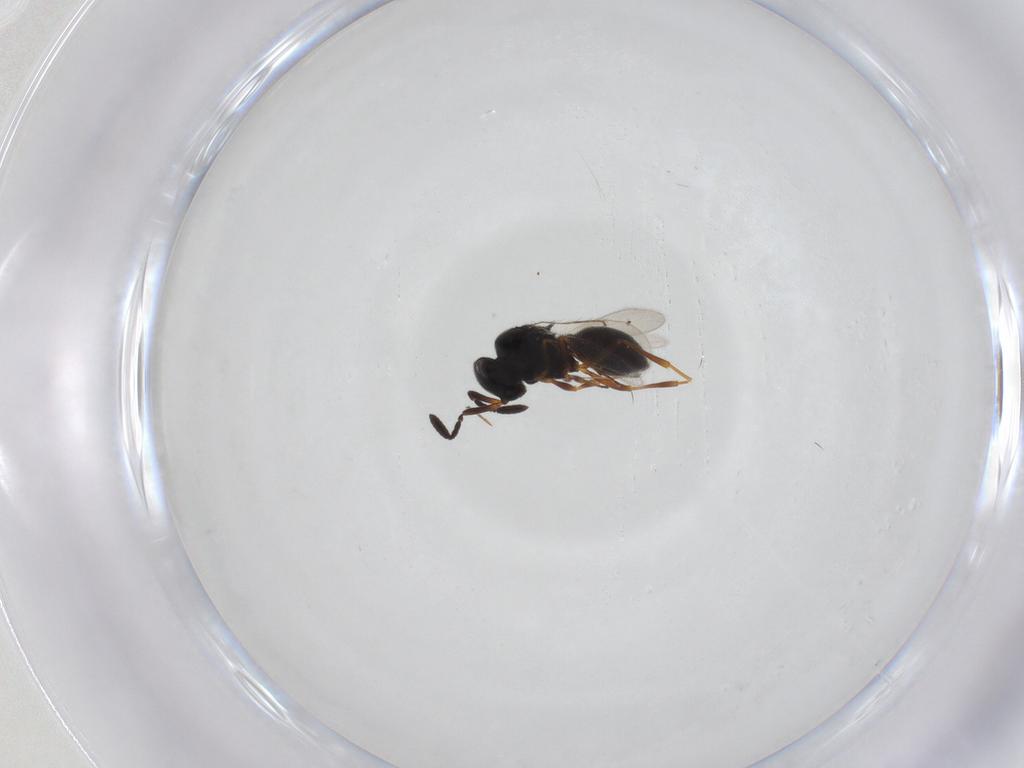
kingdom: Animalia
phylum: Arthropoda
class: Insecta
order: Hymenoptera
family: Scelionidae
